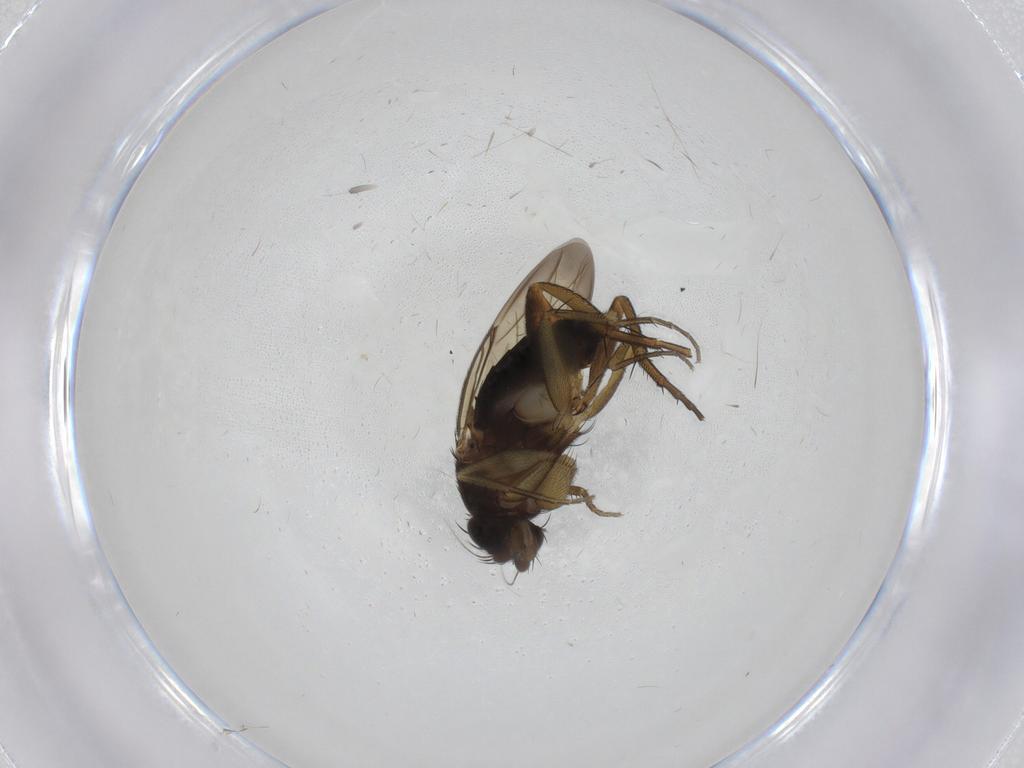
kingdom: Animalia
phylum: Arthropoda
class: Insecta
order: Diptera
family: Phoridae
